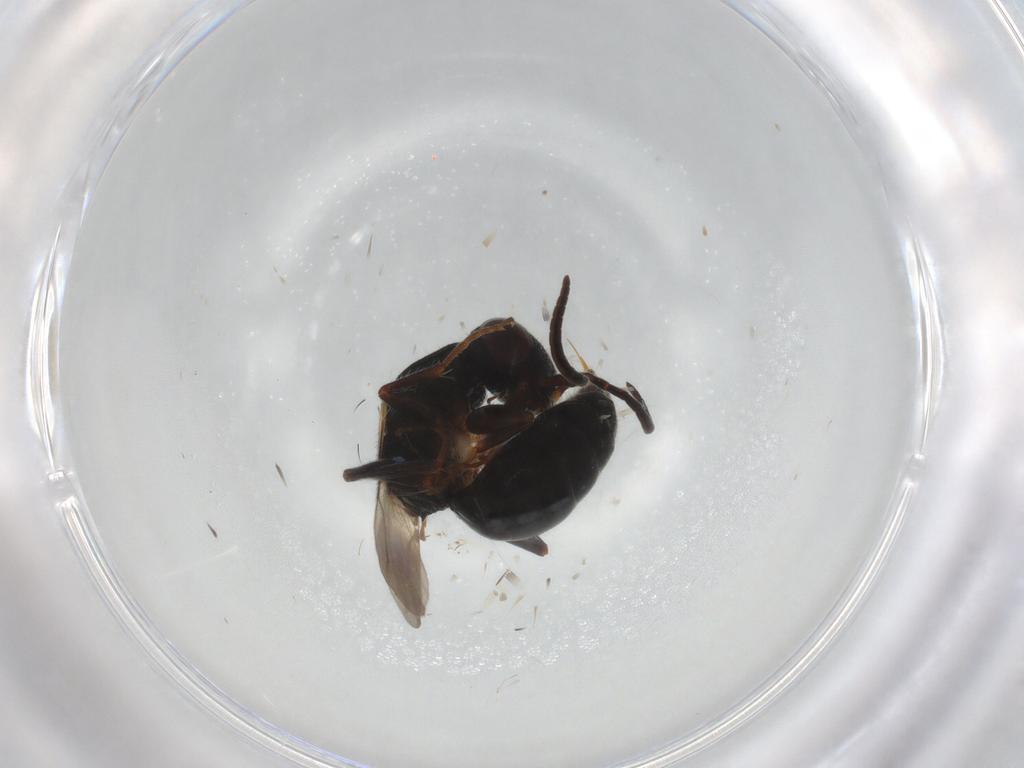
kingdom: Animalia
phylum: Arthropoda
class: Insecta
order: Hymenoptera
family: Bethylidae
